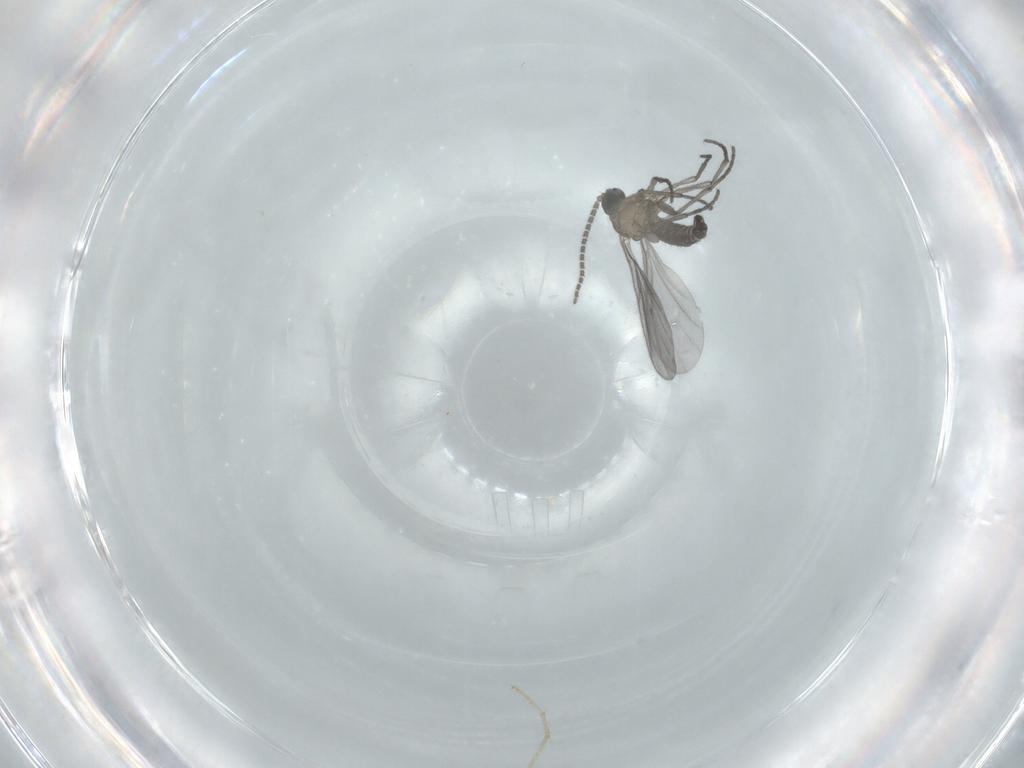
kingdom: Animalia
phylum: Arthropoda
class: Insecta
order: Diptera
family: Sciaridae
